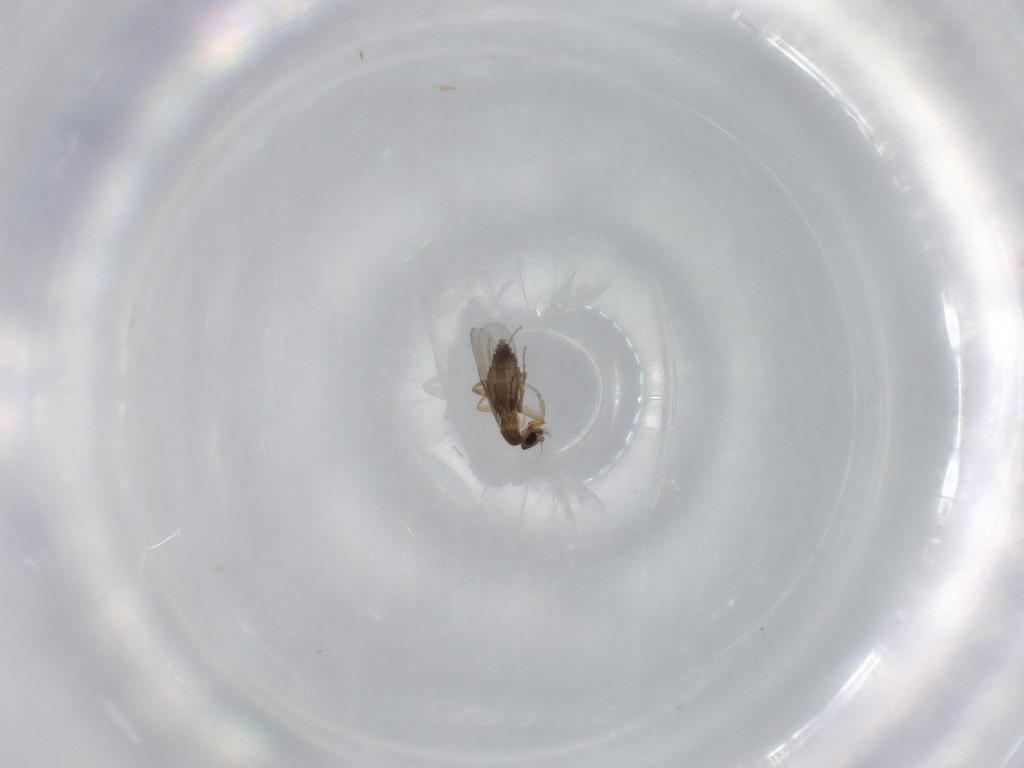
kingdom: Animalia
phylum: Arthropoda
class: Insecta
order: Diptera
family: Phoridae
